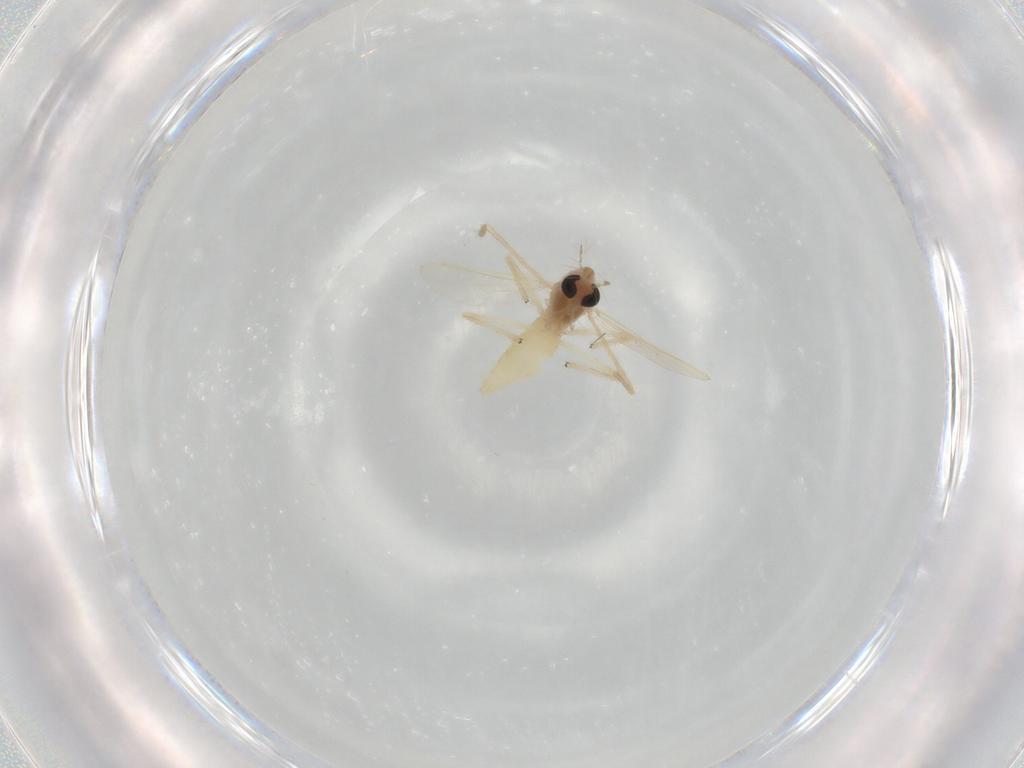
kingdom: Animalia
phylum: Arthropoda
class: Insecta
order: Diptera
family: Chironomidae
